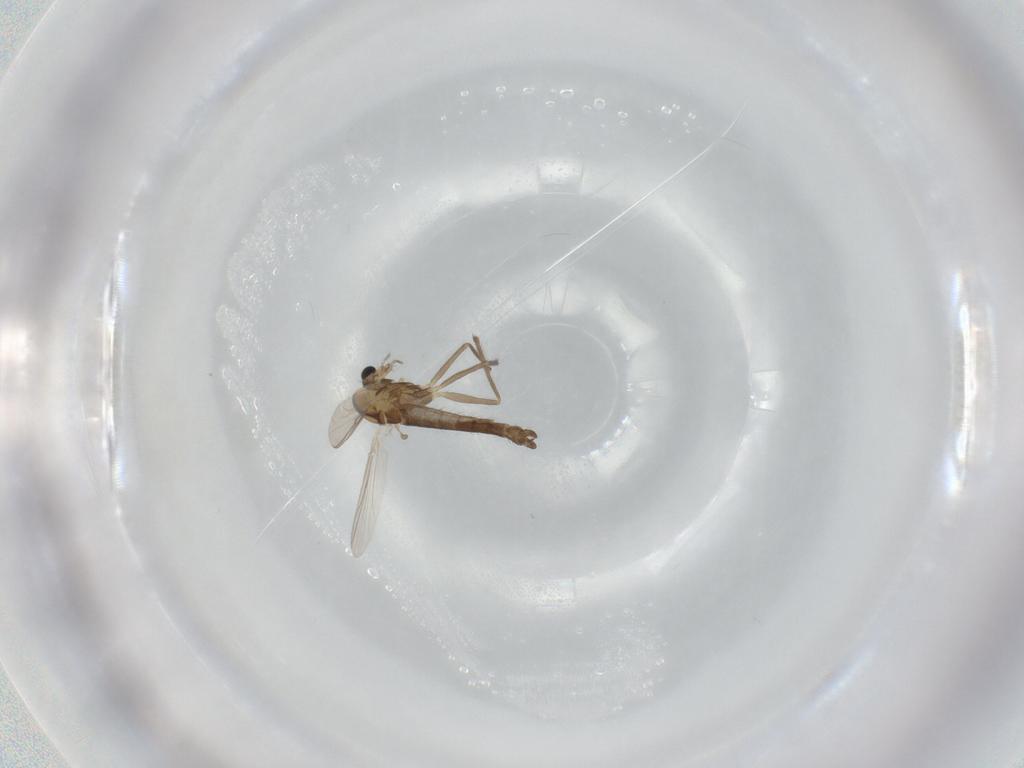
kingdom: Animalia
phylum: Arthropoda
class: Insecta
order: Diptera
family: Chironomidae
